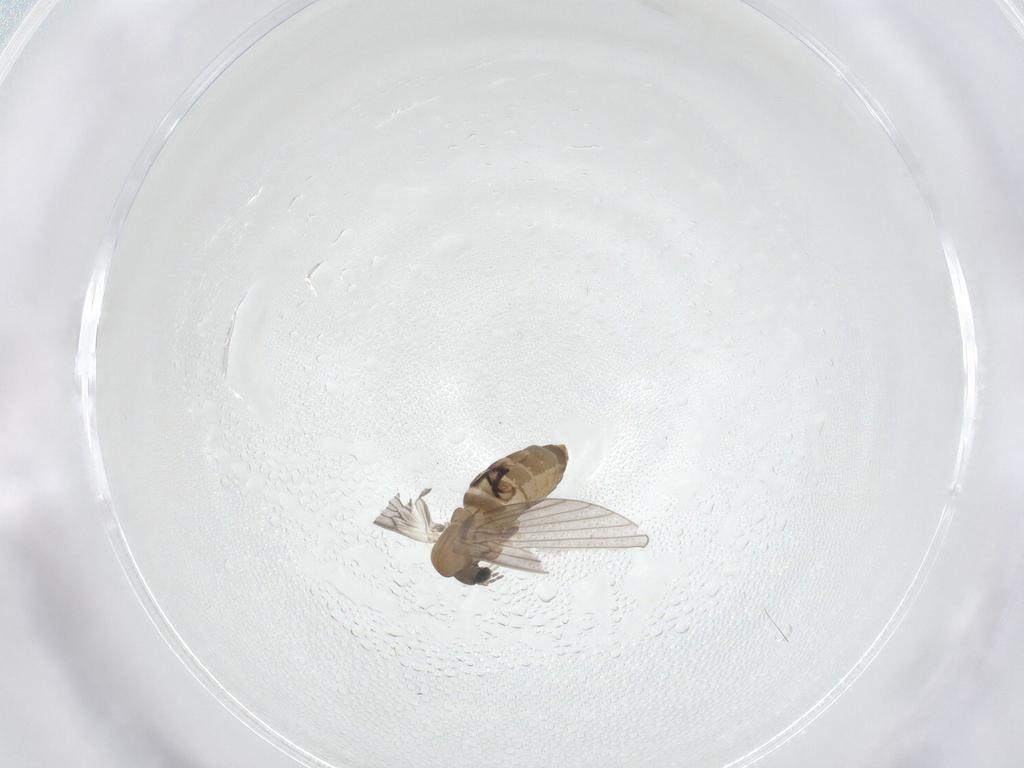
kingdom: Animalia
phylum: Arthropoda
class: Insecta
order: Diptera
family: Psychodidae
